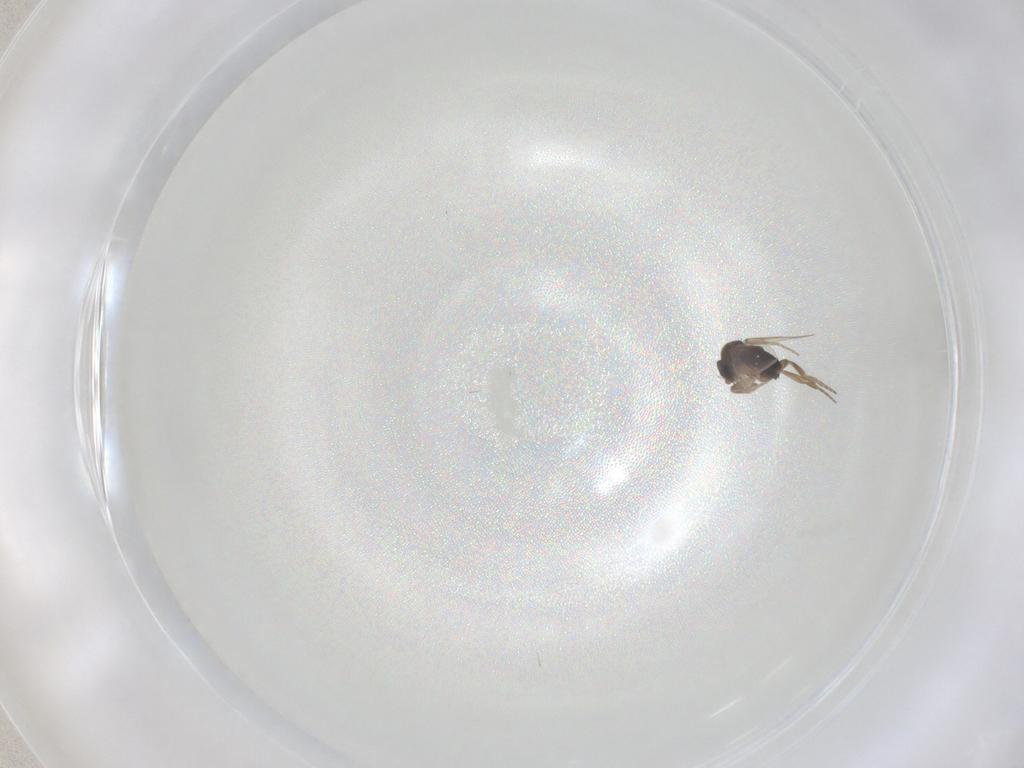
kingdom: Animalia
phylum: Arthropoda
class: Insecta
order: Diptera
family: Phoridae
